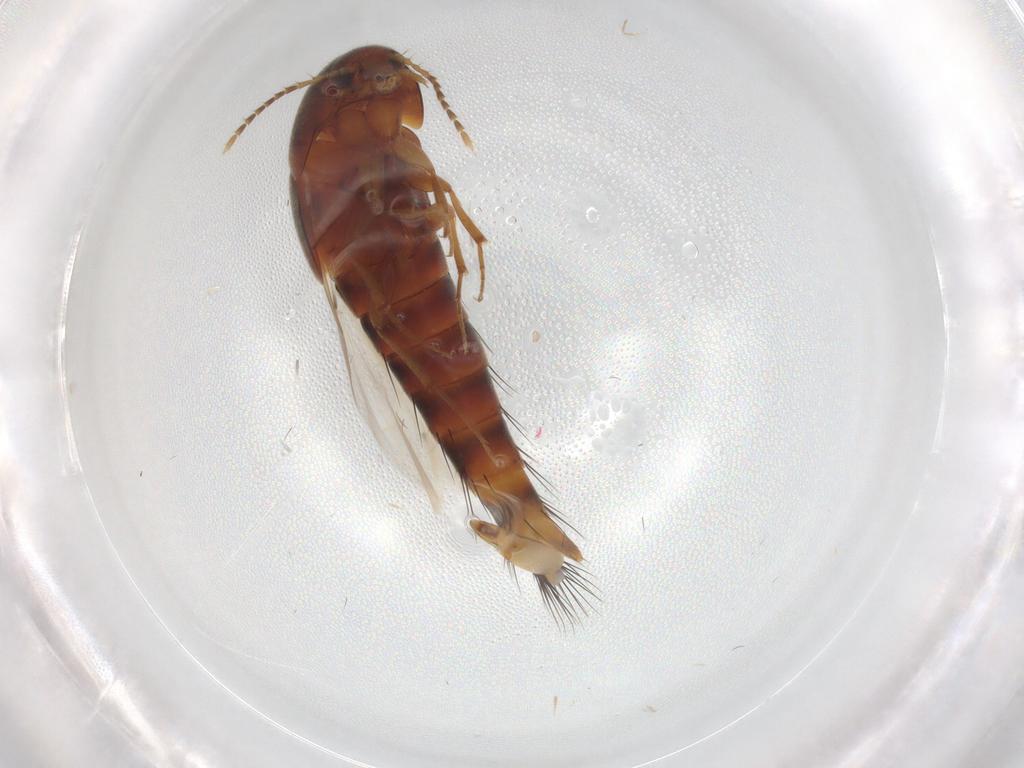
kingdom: Animalia
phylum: Arthropoda
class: Insecta
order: Coleoptera
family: Staphylinidae
